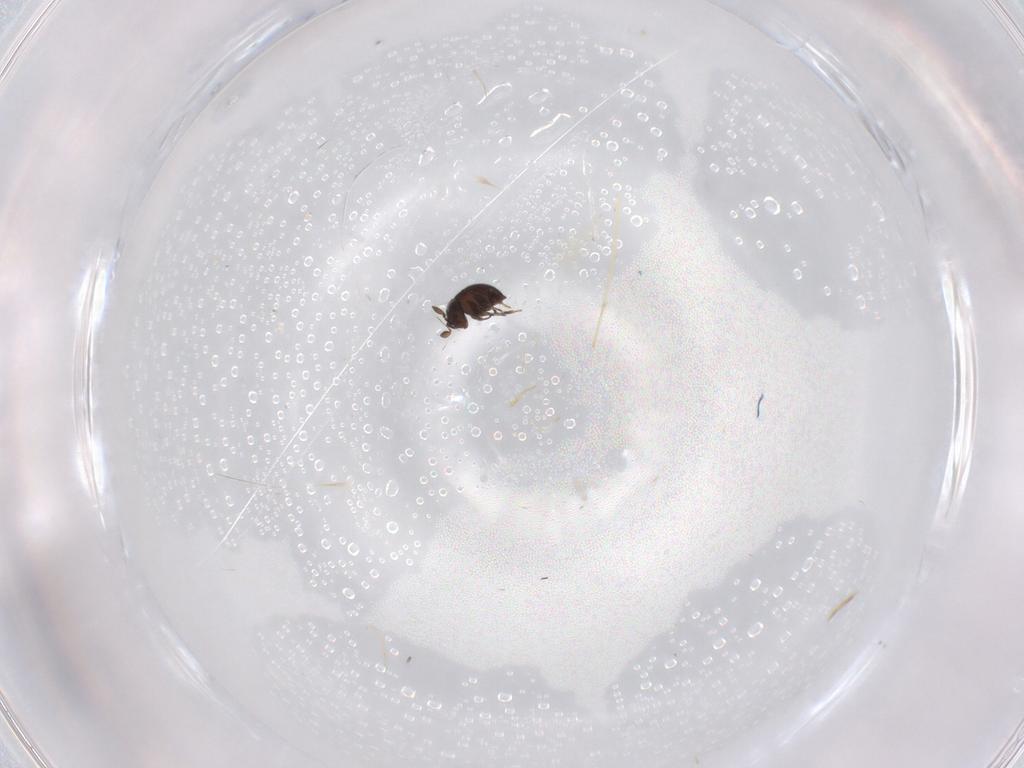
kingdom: Animalia
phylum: Arthropoda
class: Insecta
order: Hymenoptera
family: Scelionidae
